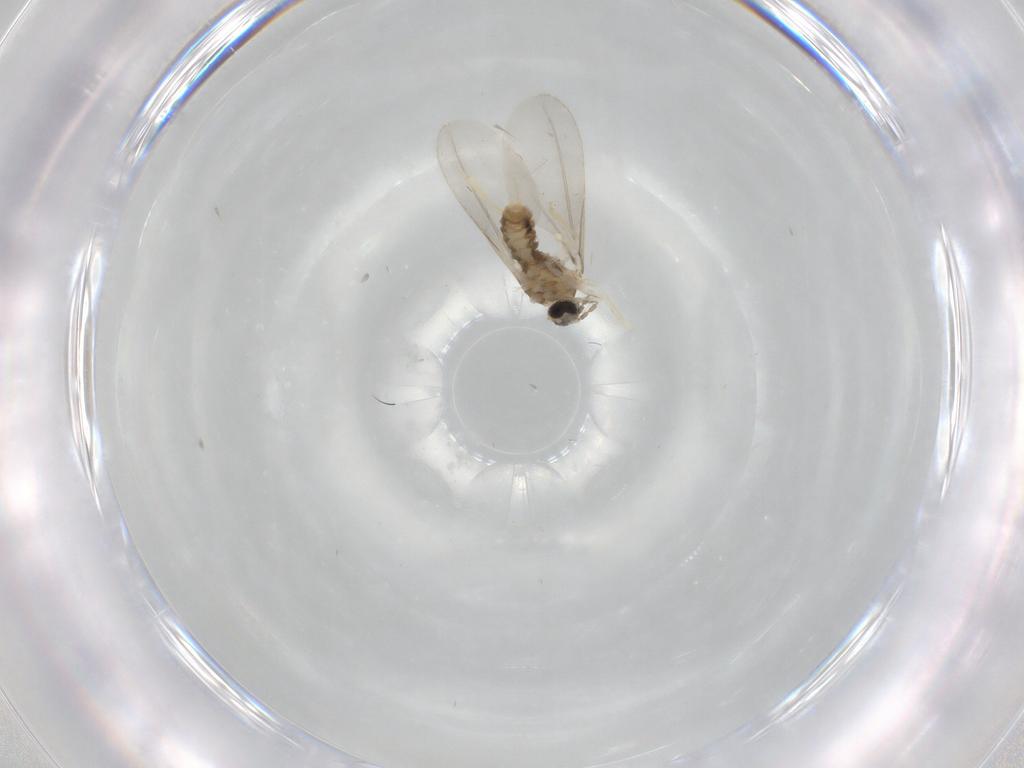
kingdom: Animalia
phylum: Arthropoda
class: Insecta
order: Diptera
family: Cecidomyiidae
